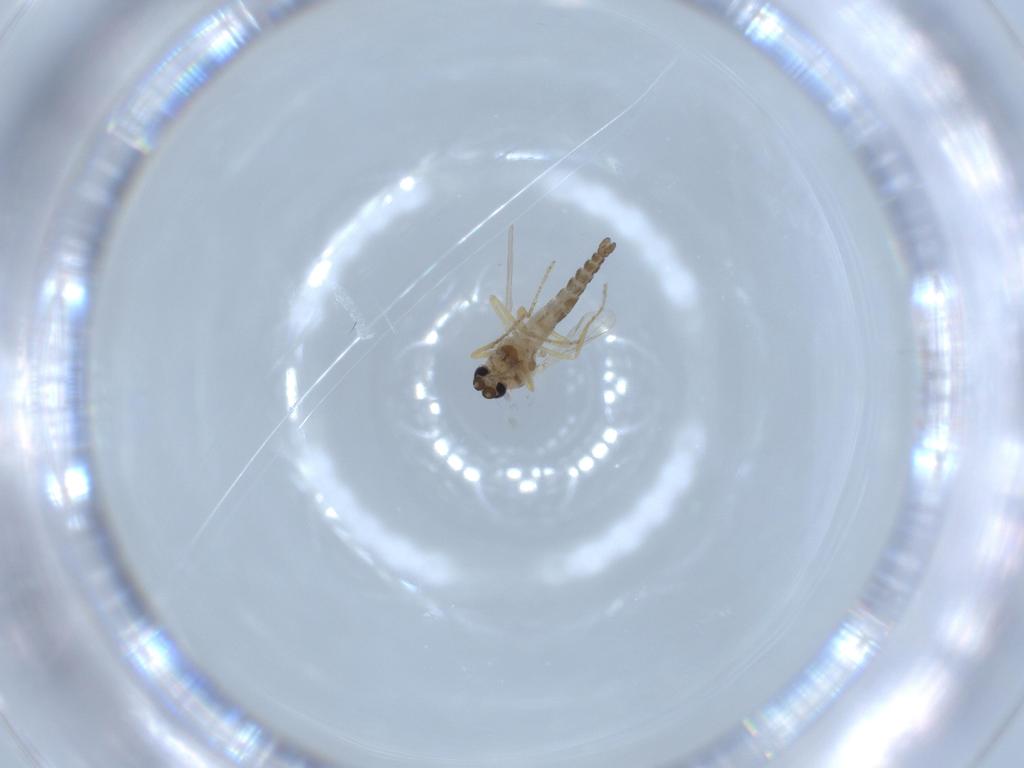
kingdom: Animalia
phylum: Arthropoda
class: Insecta
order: Diptera
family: Ceratopogonidae
